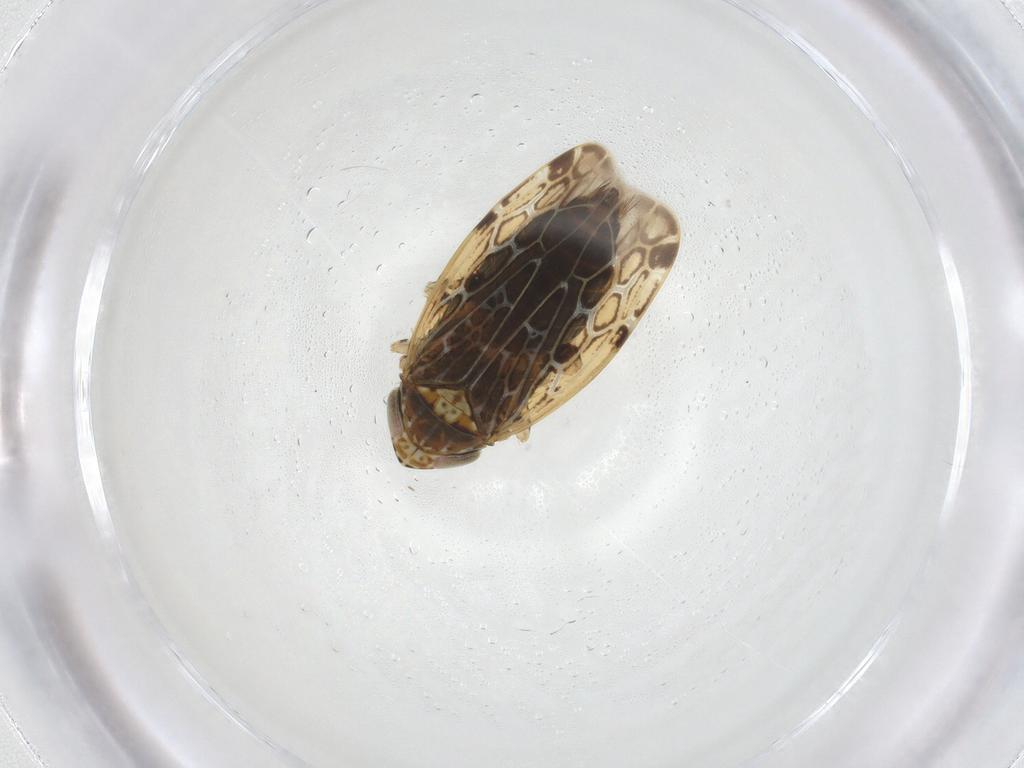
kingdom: Animalia
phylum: Arthropoda
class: Insecta
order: Hemiptera
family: Cicadellidae
